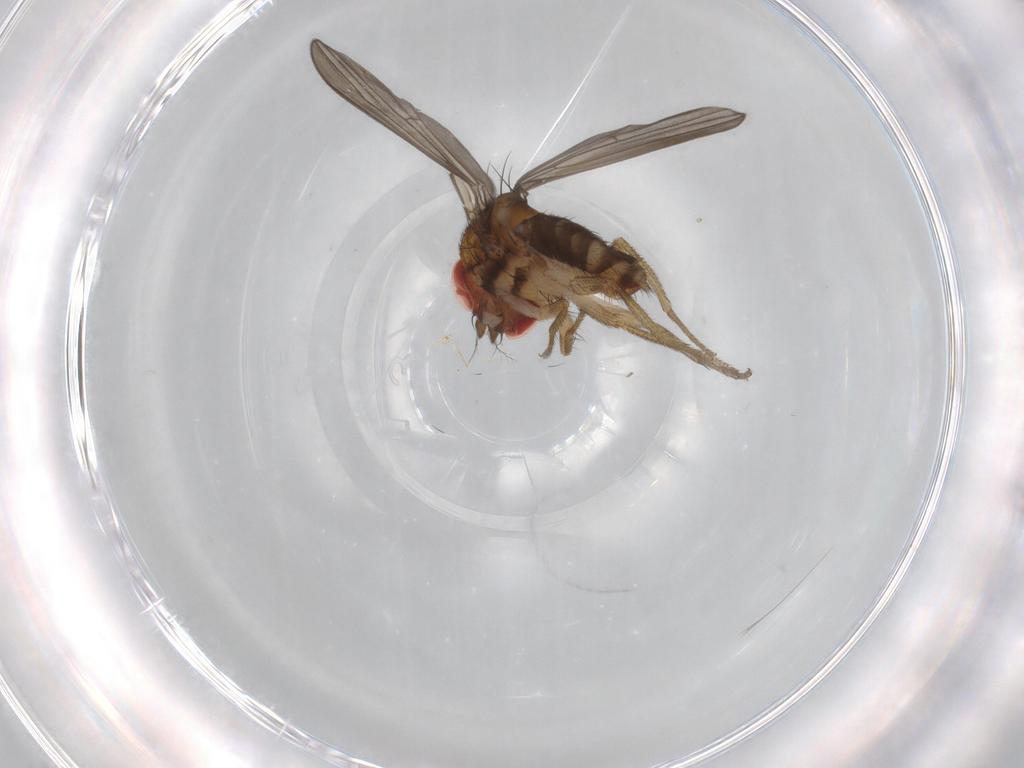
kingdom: Animalia
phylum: Arthropoda
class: Insecta
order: Diptera
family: Drosophilidae
